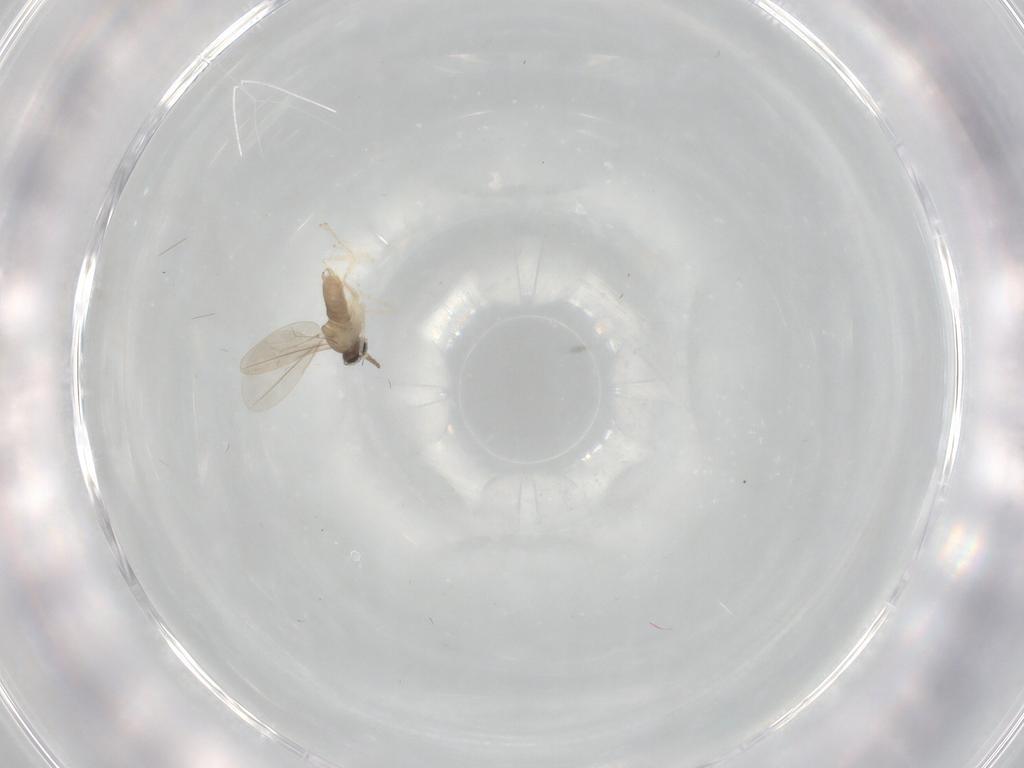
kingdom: Animalia
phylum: Arthropoda
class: Insecta
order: Diptera
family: Cecidomyiidae
